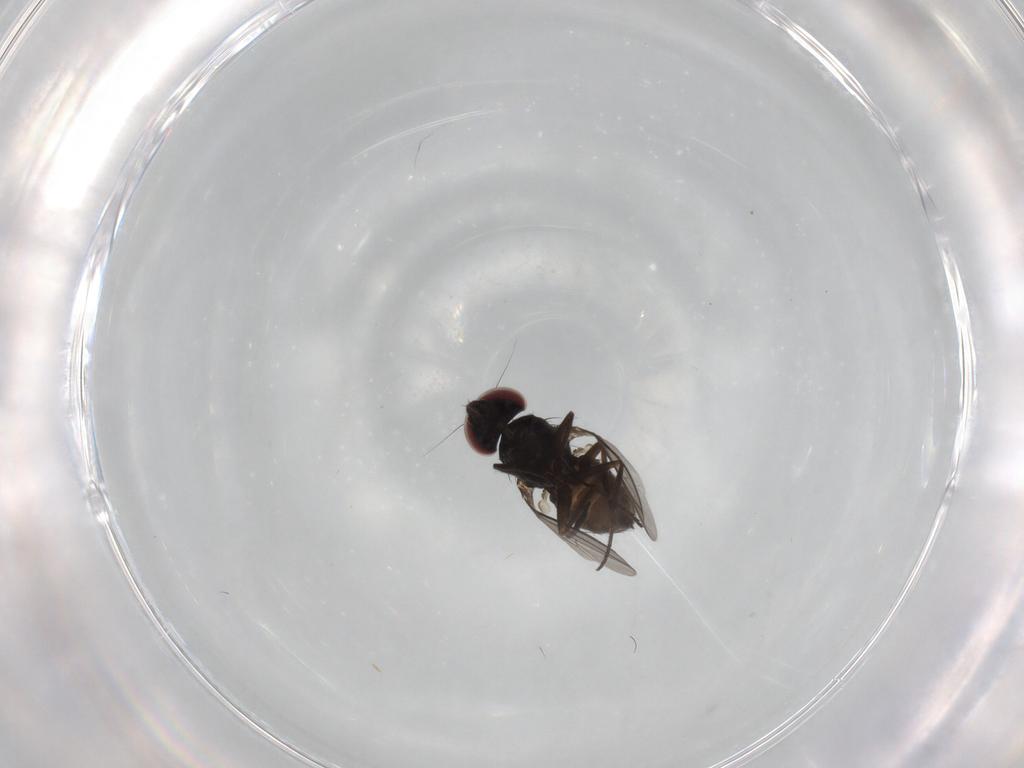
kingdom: Animalia
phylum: Arthropoda
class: Insecta
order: Diptera
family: Dolichopodidae
